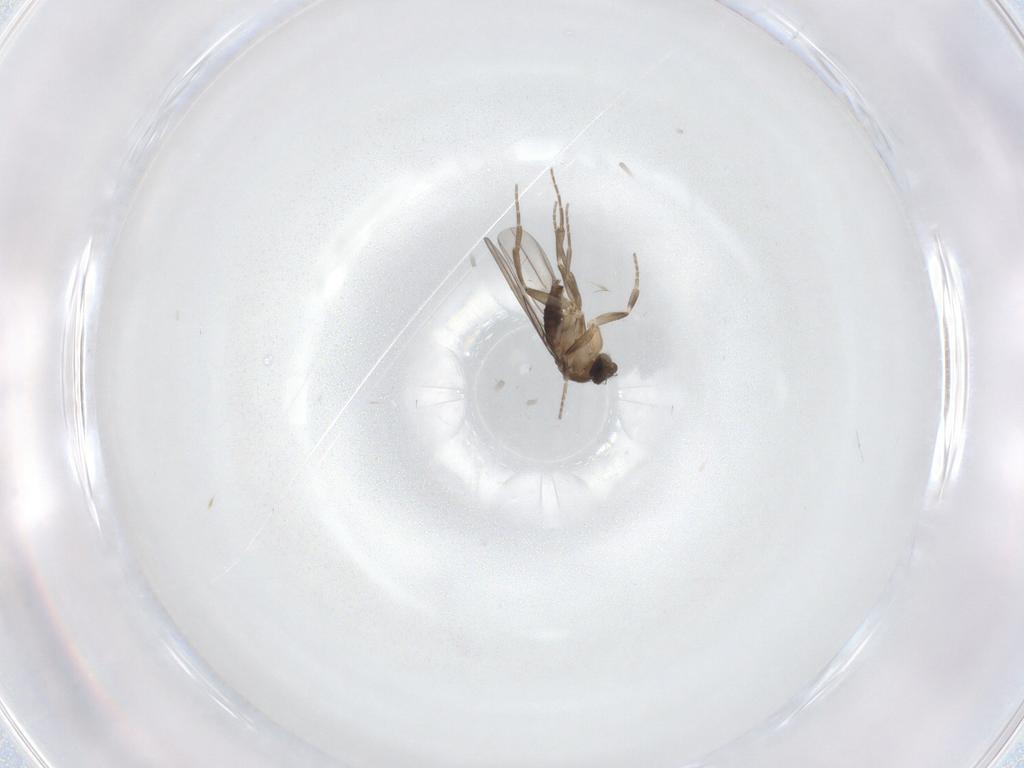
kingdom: Animalia
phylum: Arthropoda
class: Insecta
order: Diptera
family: Phoridae
